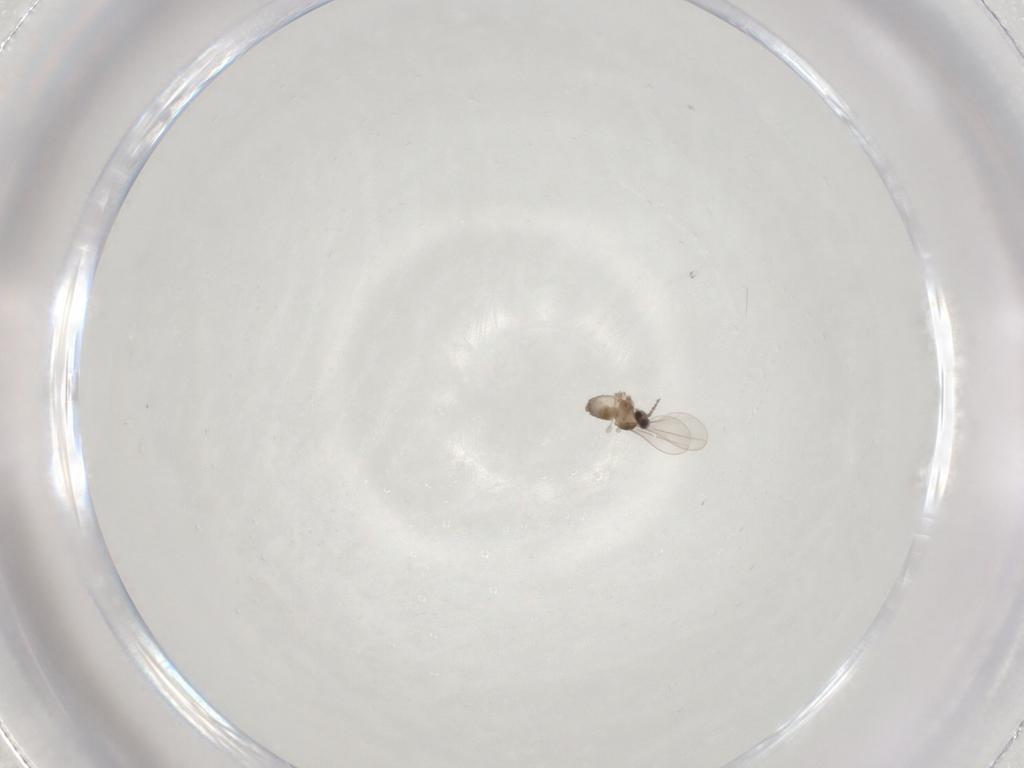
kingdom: Animalia
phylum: Arthropoda
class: Insecta
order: Diptera
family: Cecidomyiidae
